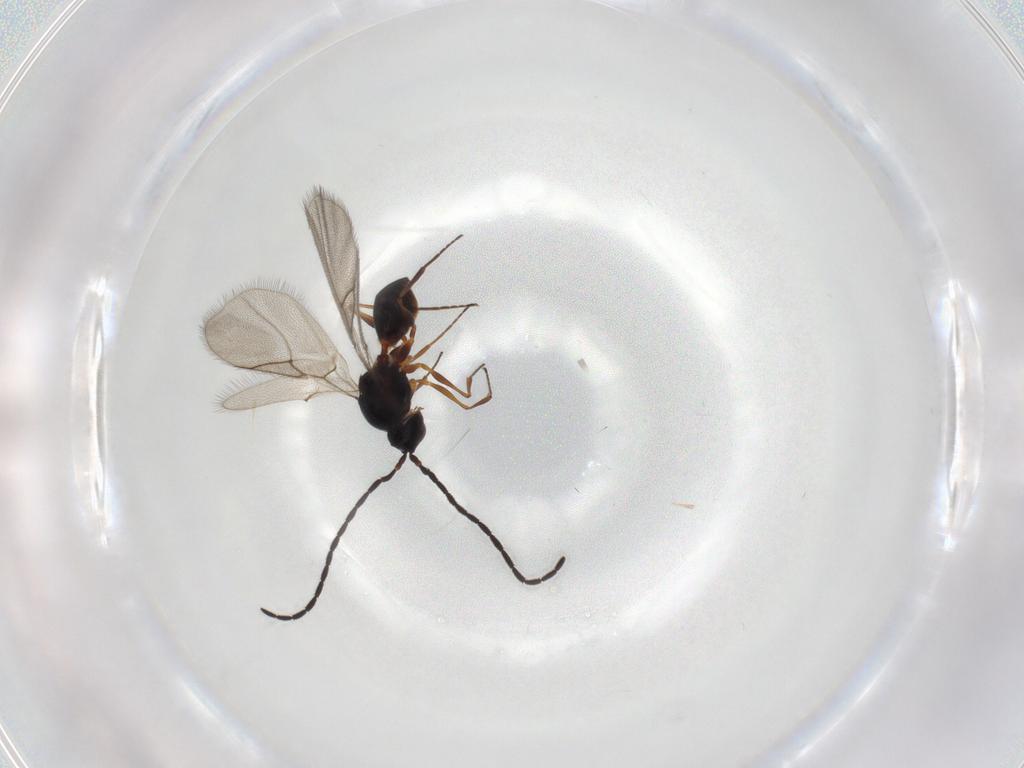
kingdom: Animalia
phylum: Arthropoda
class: Insecta
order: Hymenoptera
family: Figitidae
